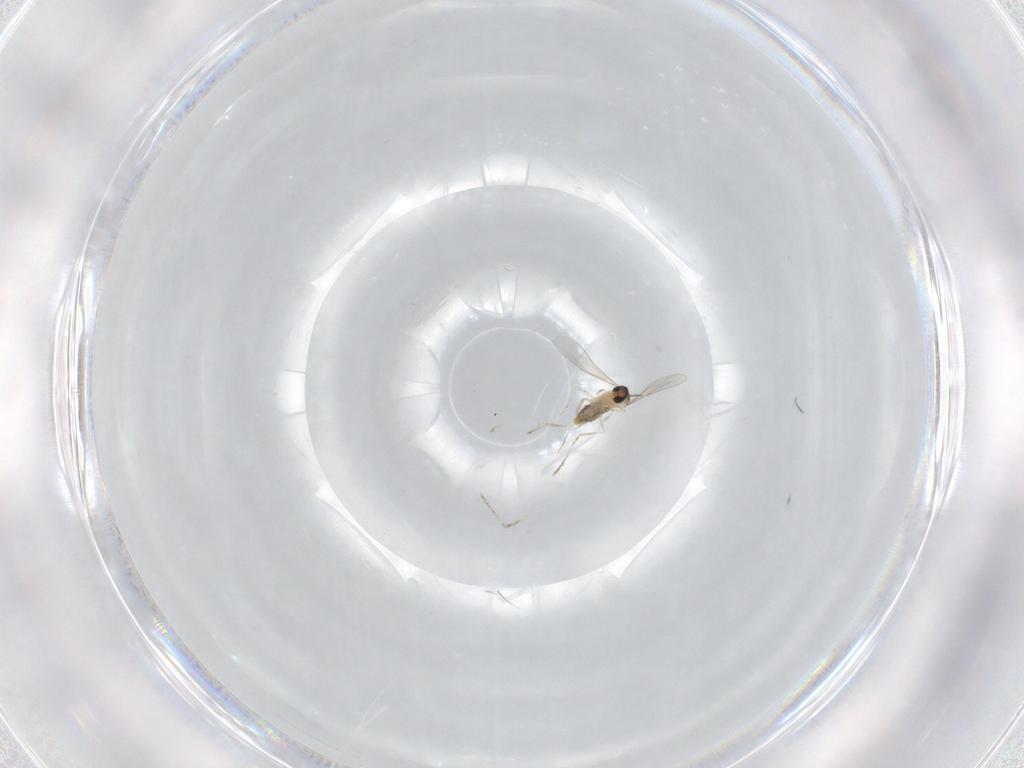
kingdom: Animalia
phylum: Arthropoda
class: Insecta
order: Diptera
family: Cecidomyiidae
